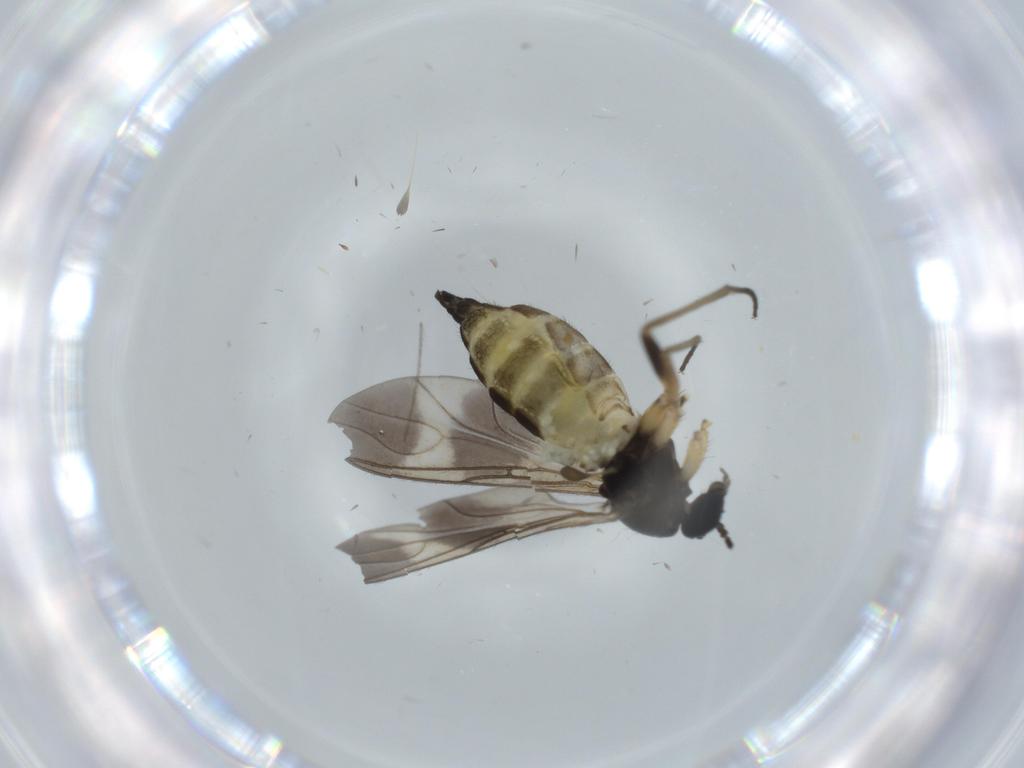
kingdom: Animalia
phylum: Arthropoda
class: Insecta
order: Diptera
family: Sciaridae
